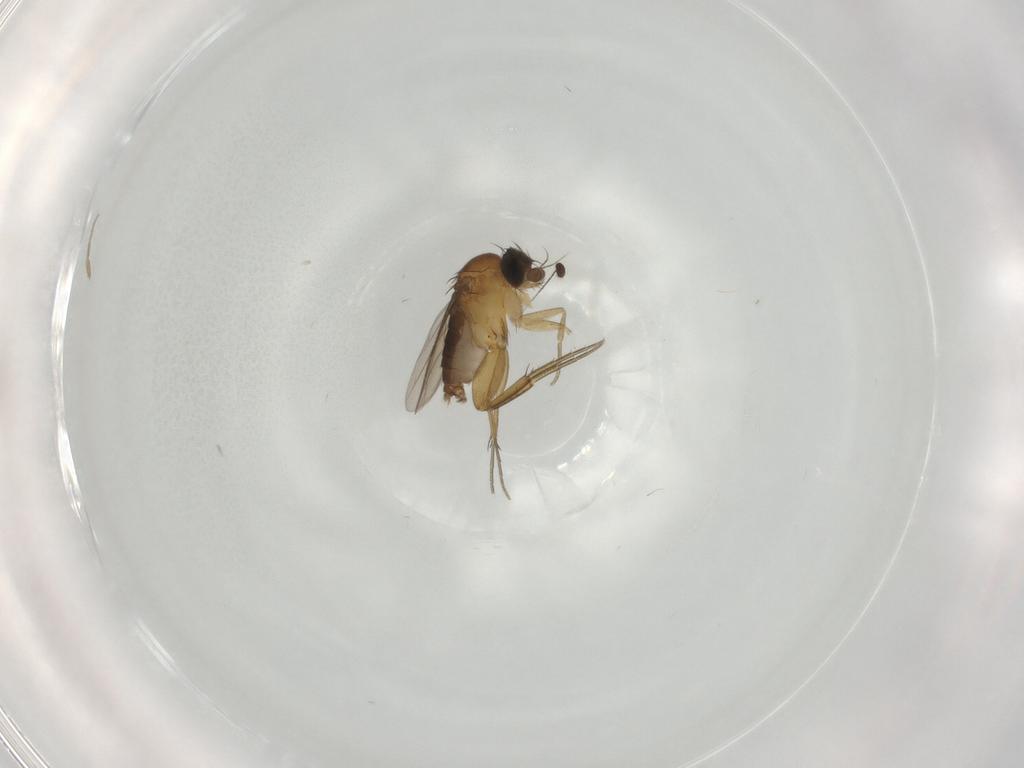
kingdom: Animalia
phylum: Arthropoda
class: Insecta
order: Diptera
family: Phoridae
